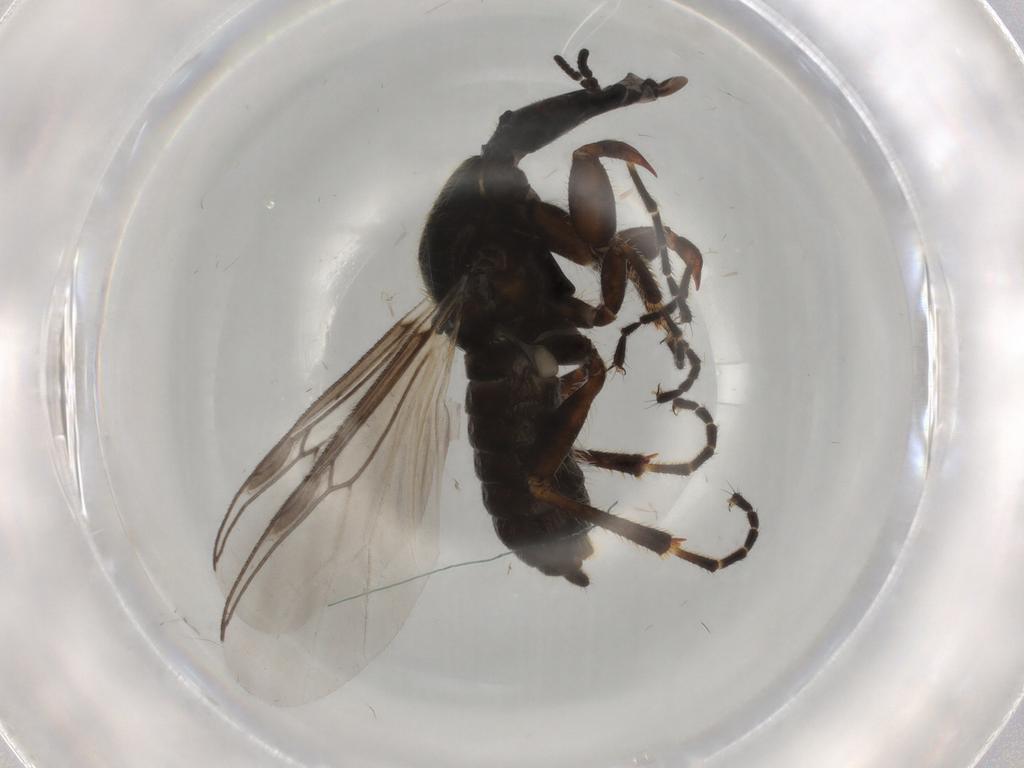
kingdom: Animalia
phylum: Arthropoda
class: Insecta
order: Diptera
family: Bibionidae
